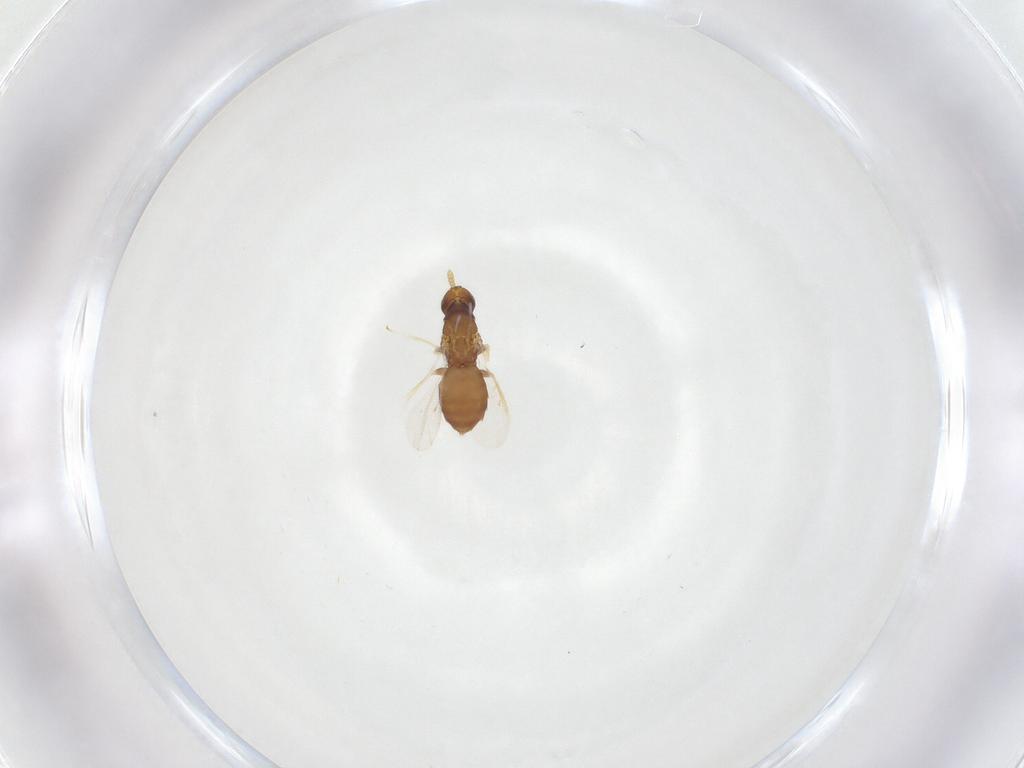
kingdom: Animalia
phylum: Arthropoda
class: Insecta
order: Hymenoptera
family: Eulophidae
